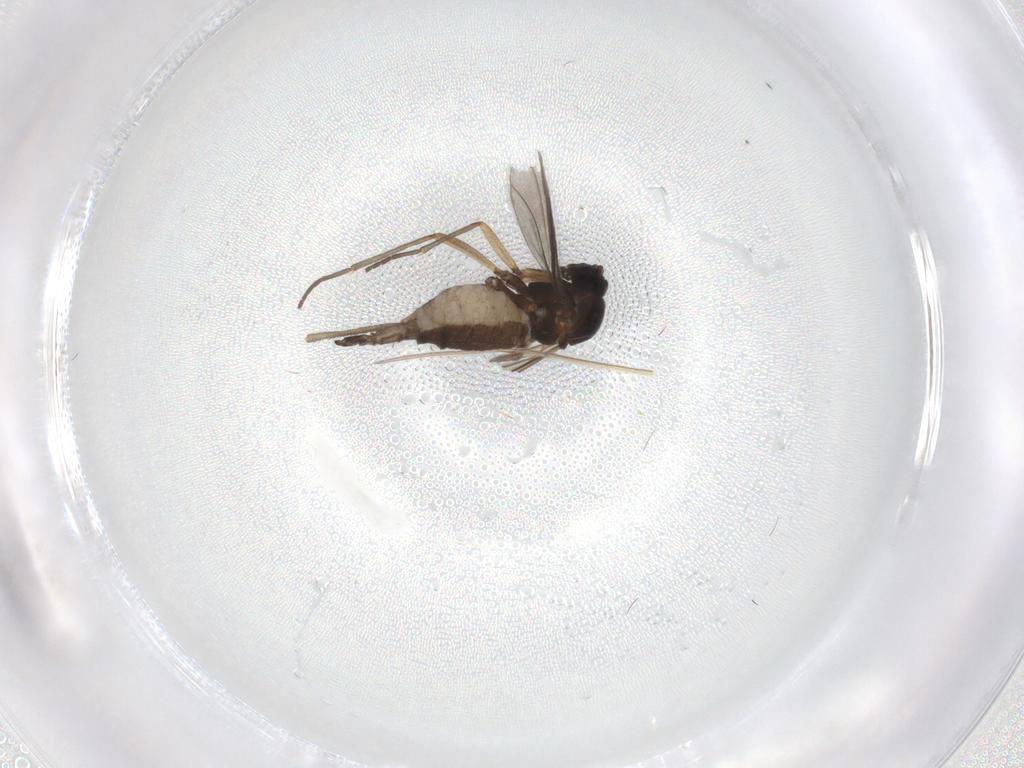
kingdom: Animalia
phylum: Arthropoda
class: Insecta
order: Diptera
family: Sciaridae
